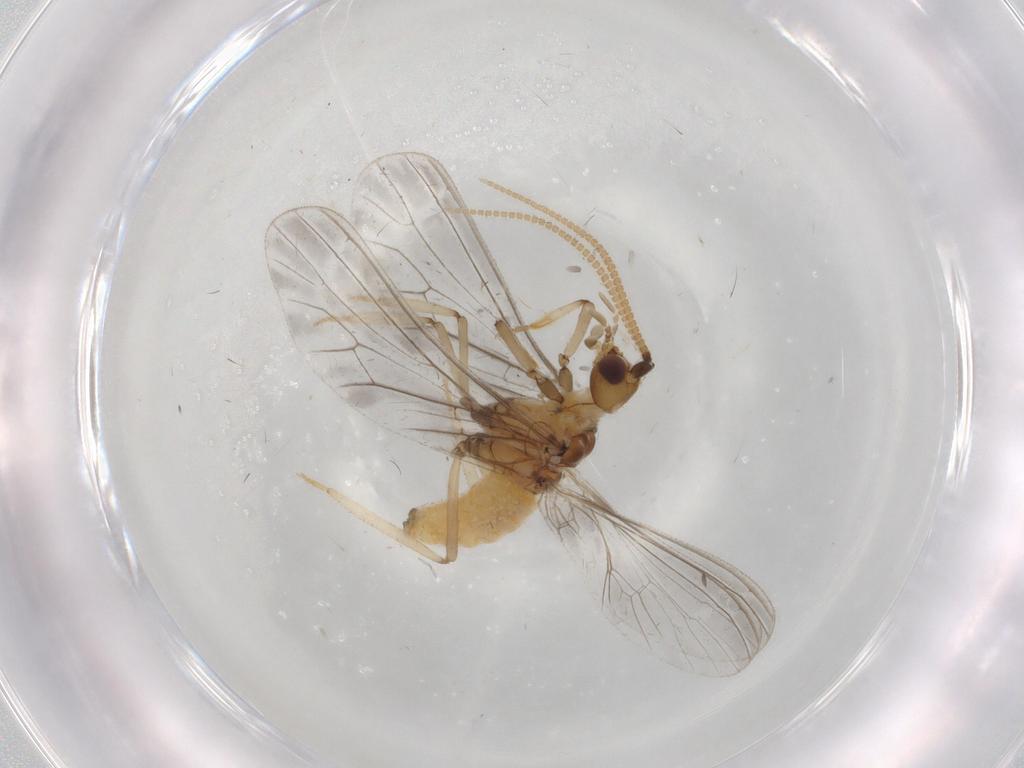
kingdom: Animalia
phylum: Arthropoda
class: Insecta
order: Neuroptera
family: Coniopterygidae
